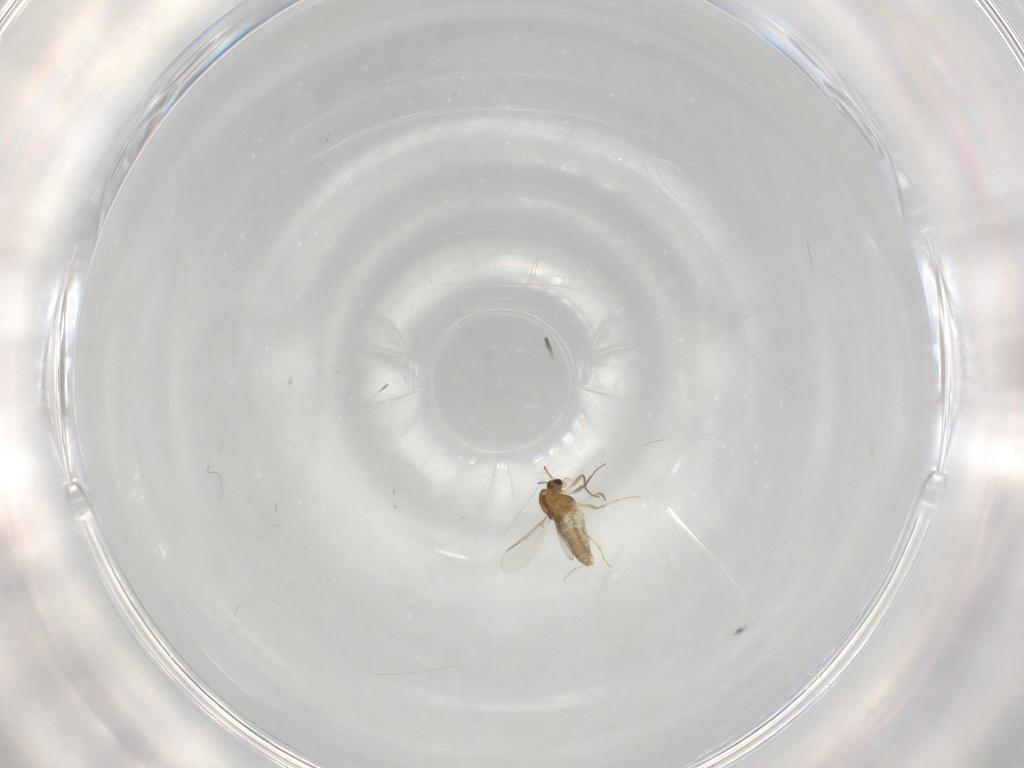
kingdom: Animalia
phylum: Arthropoda
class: Insecta
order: Diptera
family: Chironomidae
